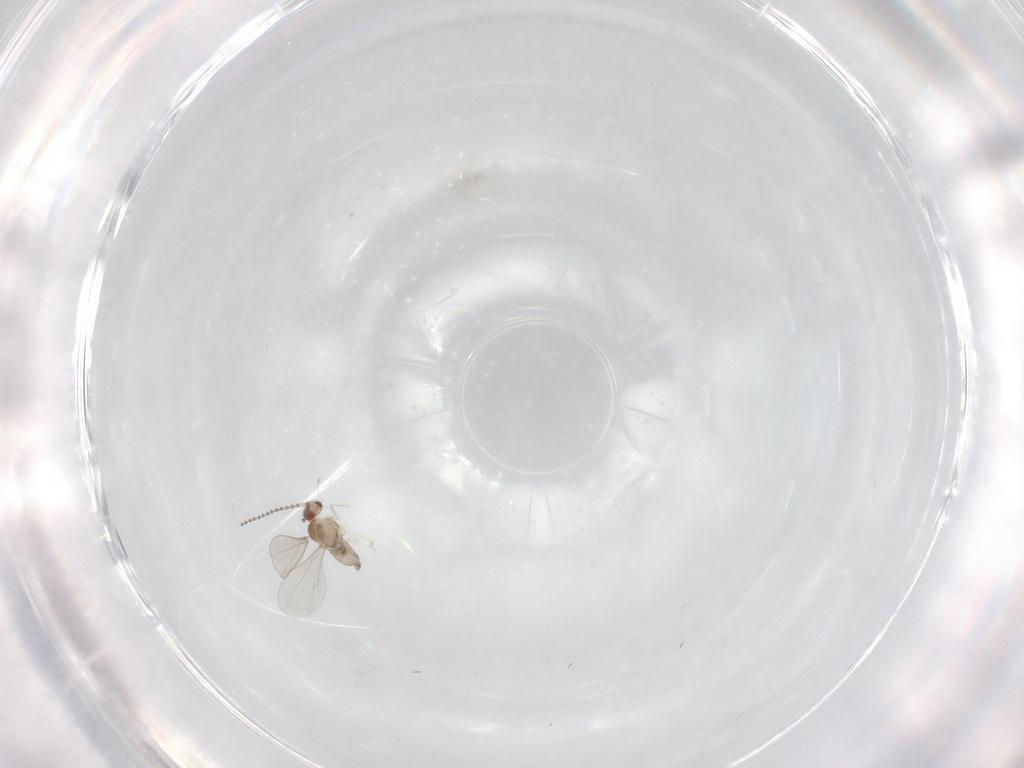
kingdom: Animalia
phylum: Arthropoda
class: Insecta
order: Diptera
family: Cecidomyiidae
